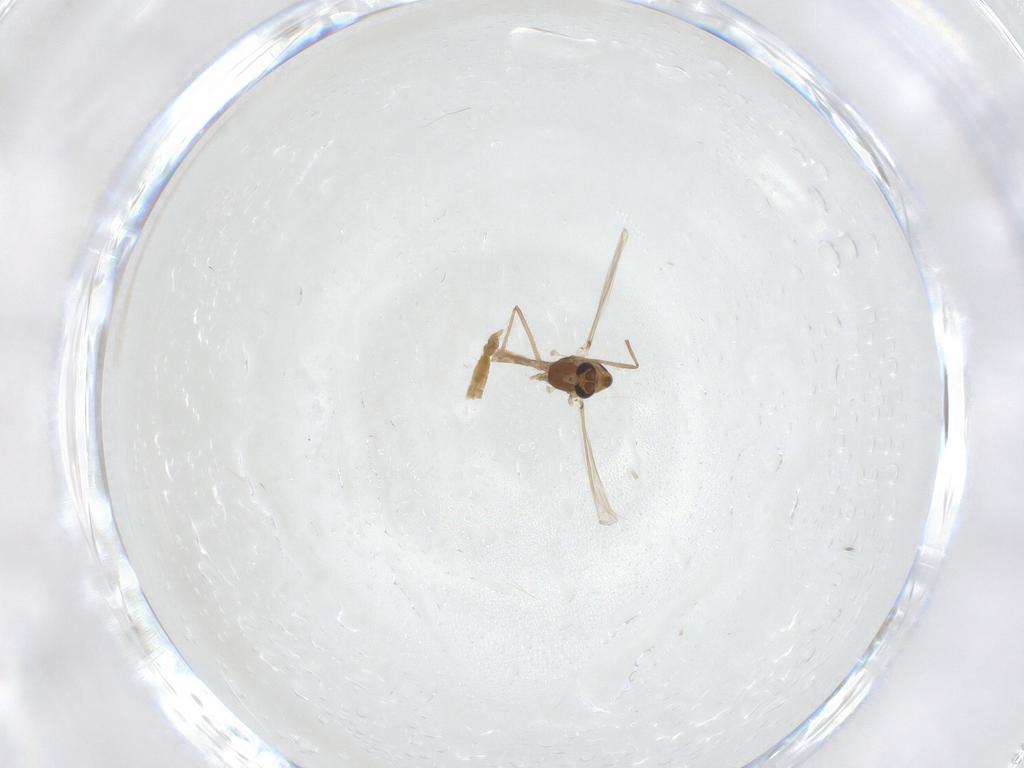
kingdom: Animalia
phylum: Arthropoda
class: Insecta
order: Diptera
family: Chironomidae
